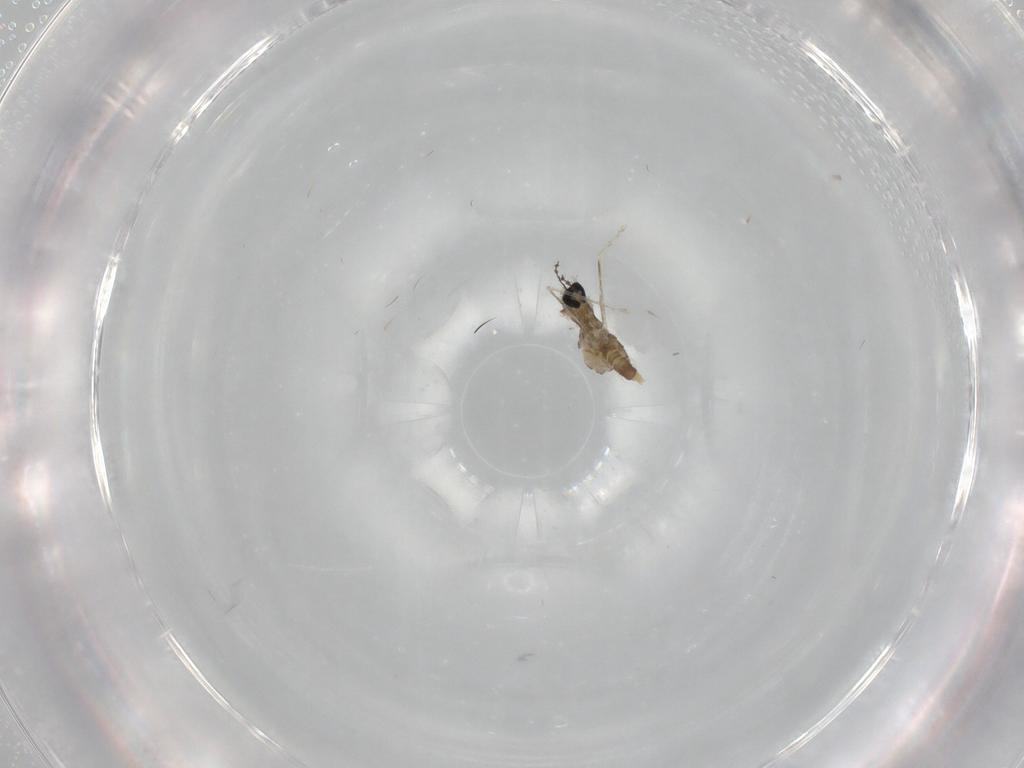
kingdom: Animalia
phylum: Arthropoda
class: Insecta
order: Diptera
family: Cecidomyiidae
